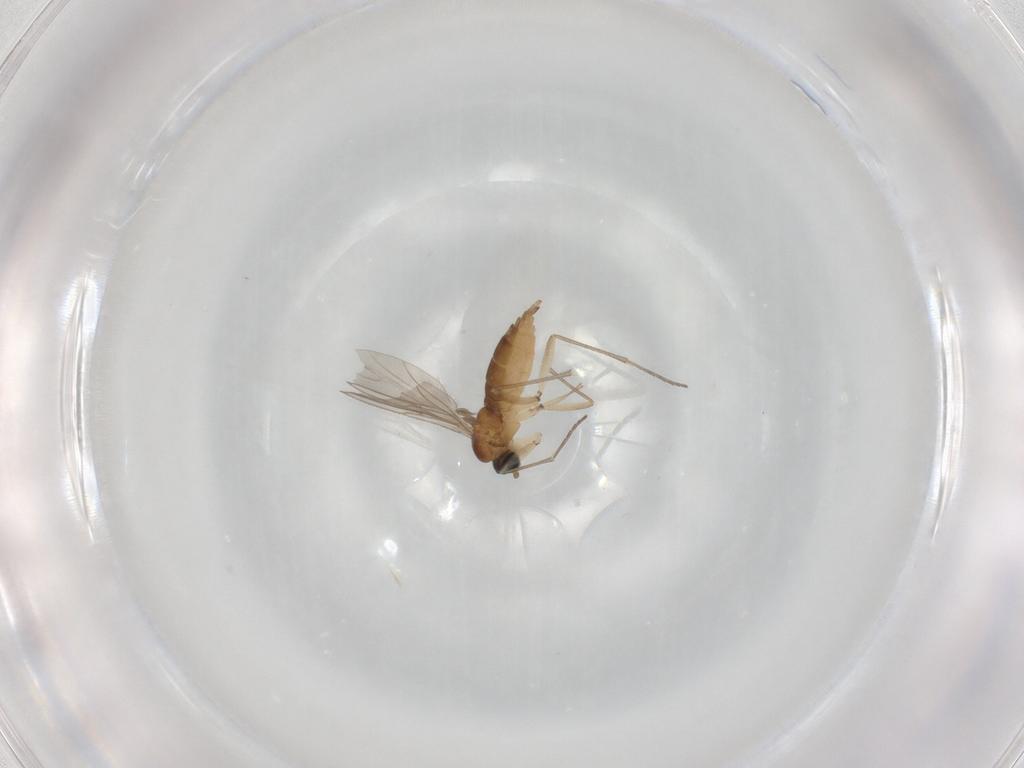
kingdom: Animalia
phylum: Arthropoda
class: Insecta
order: Diptera
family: Sciaridae
